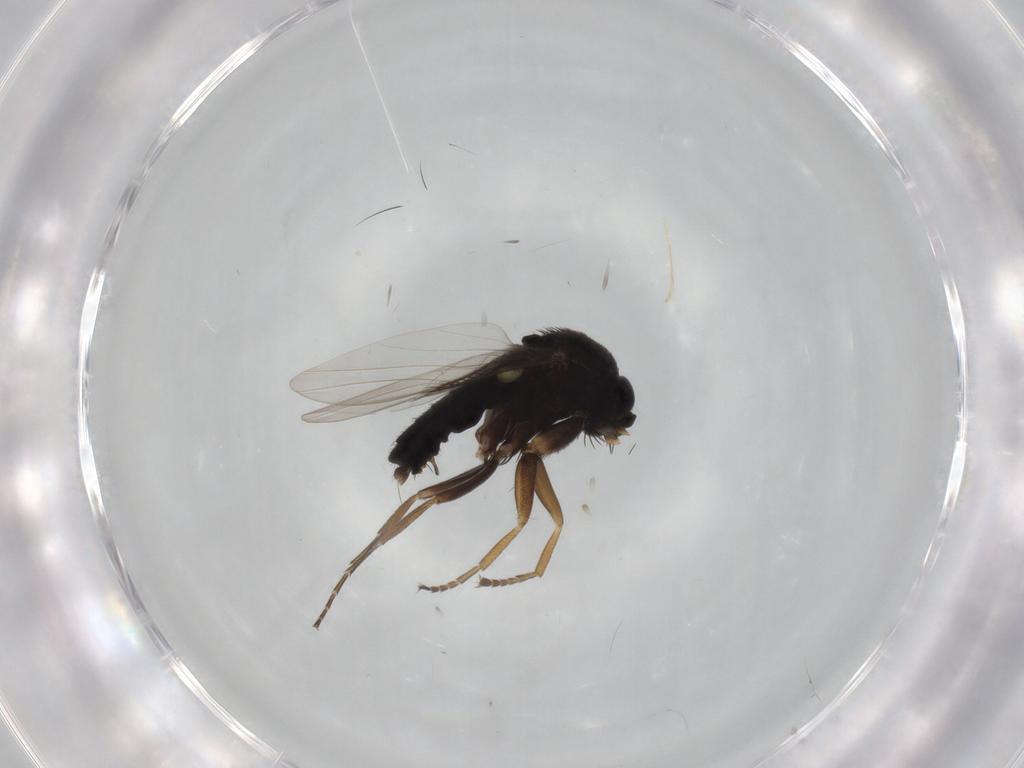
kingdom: Animalia
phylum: Arthropoda
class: Insecta
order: Diptera
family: Phoridae
